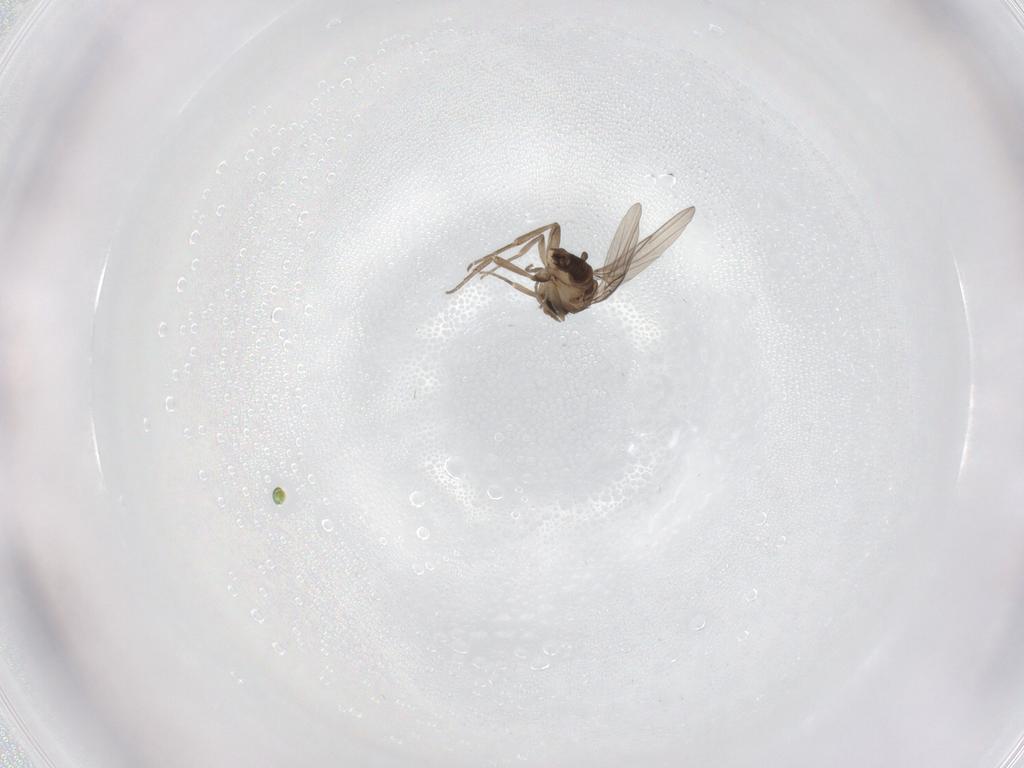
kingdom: Animalia
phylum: Arthropoda
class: Insecta
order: Diptera
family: Phoridae
